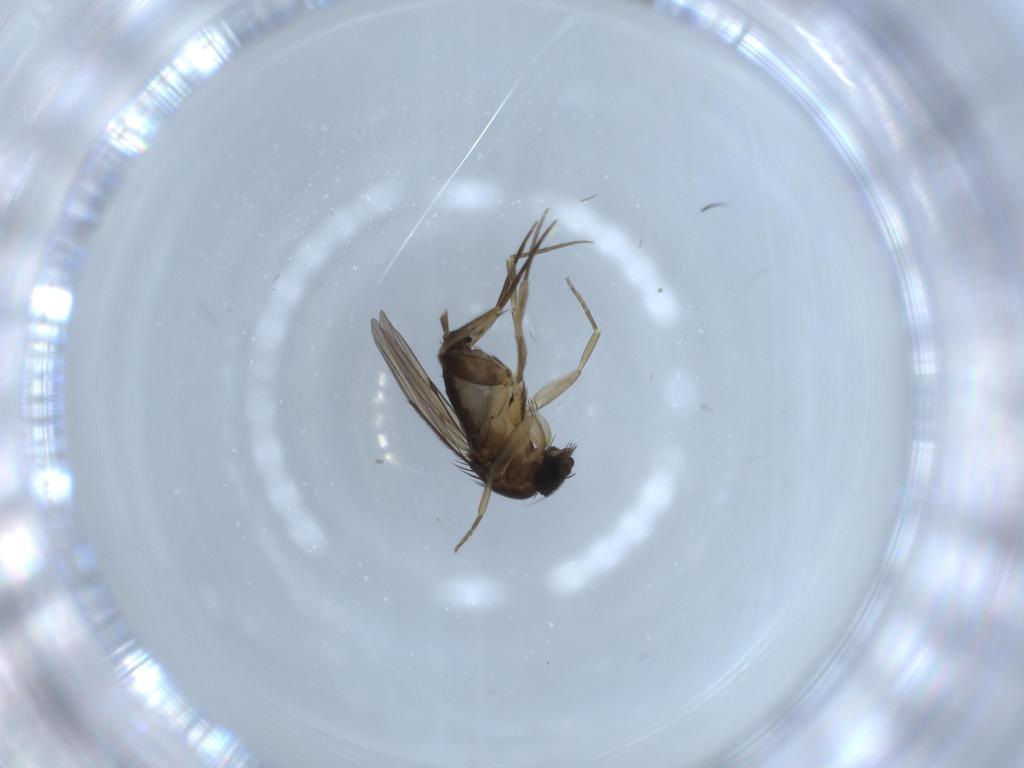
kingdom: Animalia
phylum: Arthropoda
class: Insecta
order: Diptera
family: Phoridae
